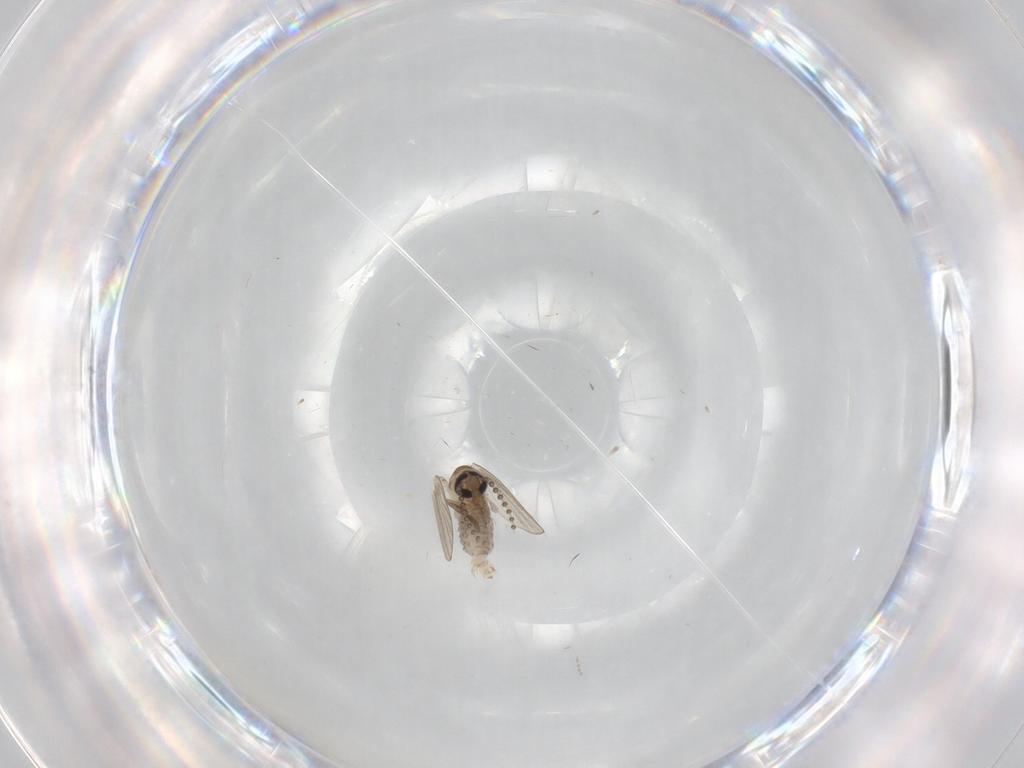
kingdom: Animalia
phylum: Arthropoda
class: Insecta
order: Diptera
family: Psychodidae
